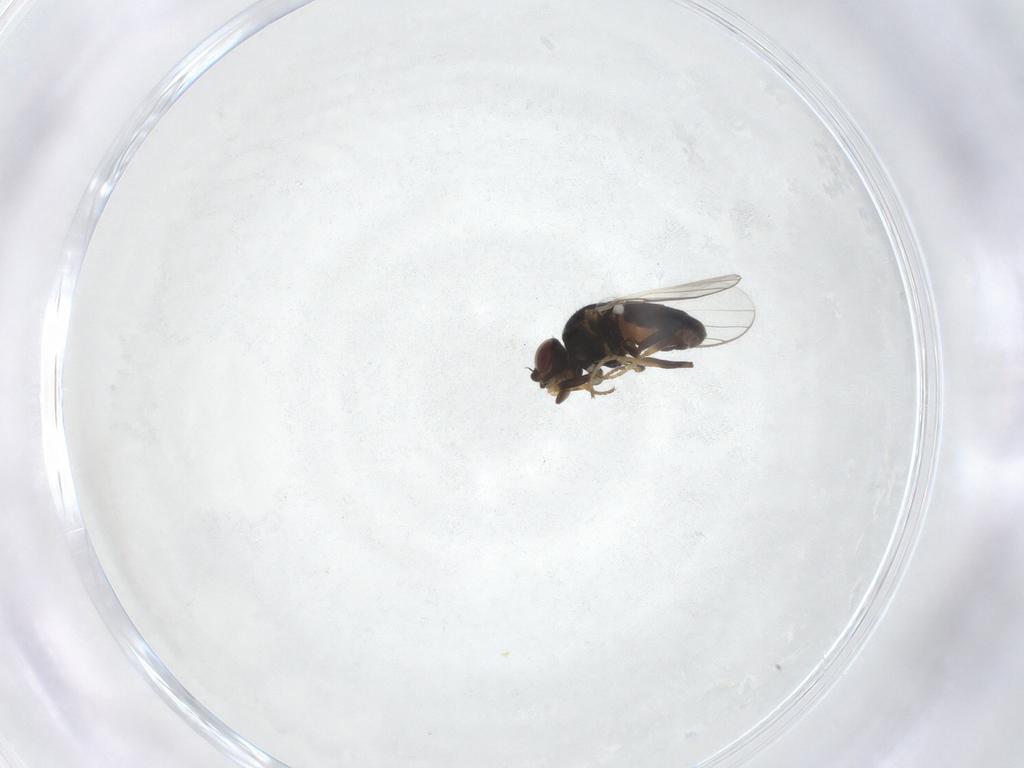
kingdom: Animalia
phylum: Arthropoda
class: Insecta
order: Diptera
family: Chloropidae
